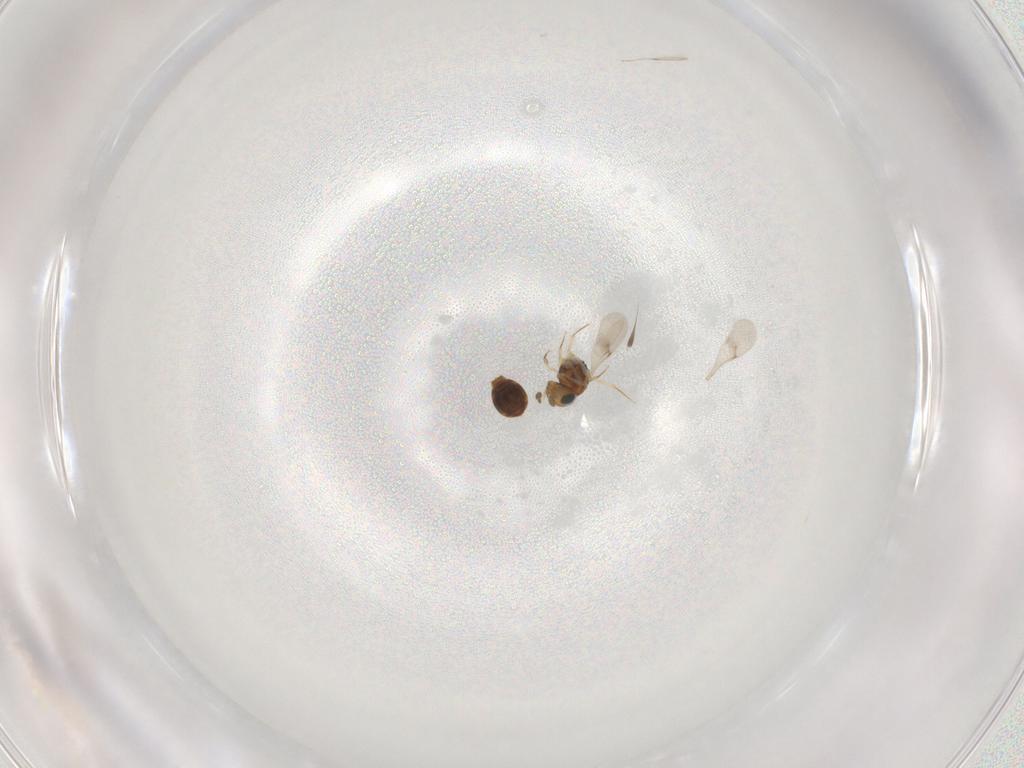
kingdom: Animalia
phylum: Arthropoda
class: Insecta
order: Hymenoptera
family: Scelionidae
